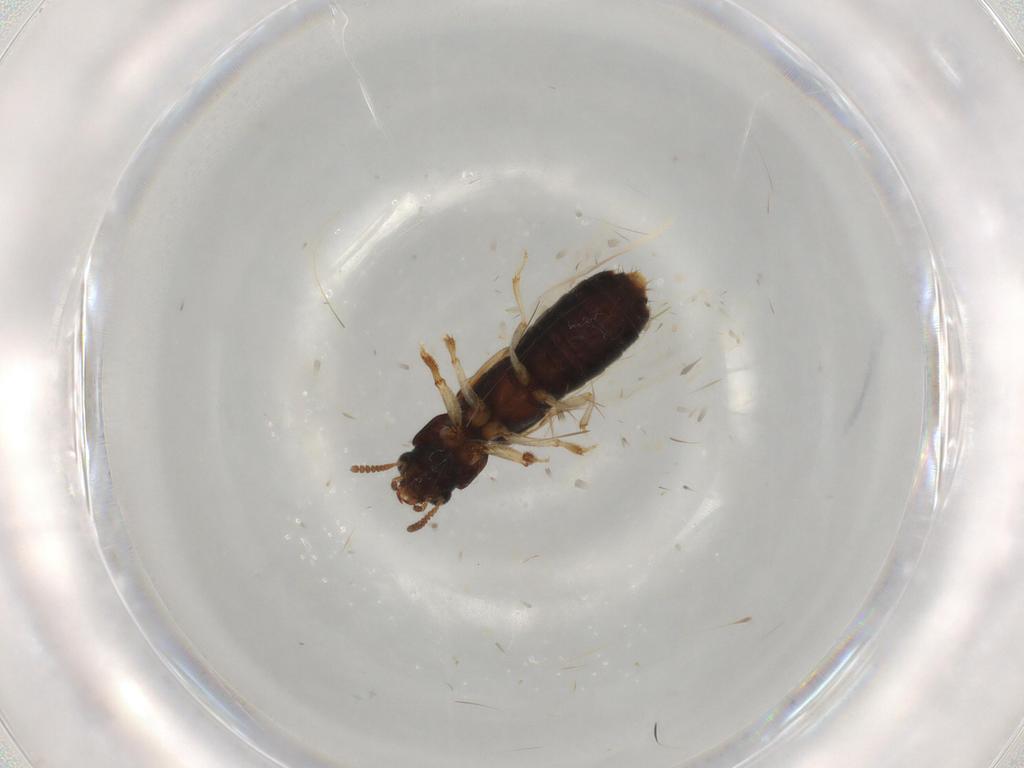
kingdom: Animalia
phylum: Arthropoda
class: Insecta
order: Coleoptera
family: Staphylinidae
